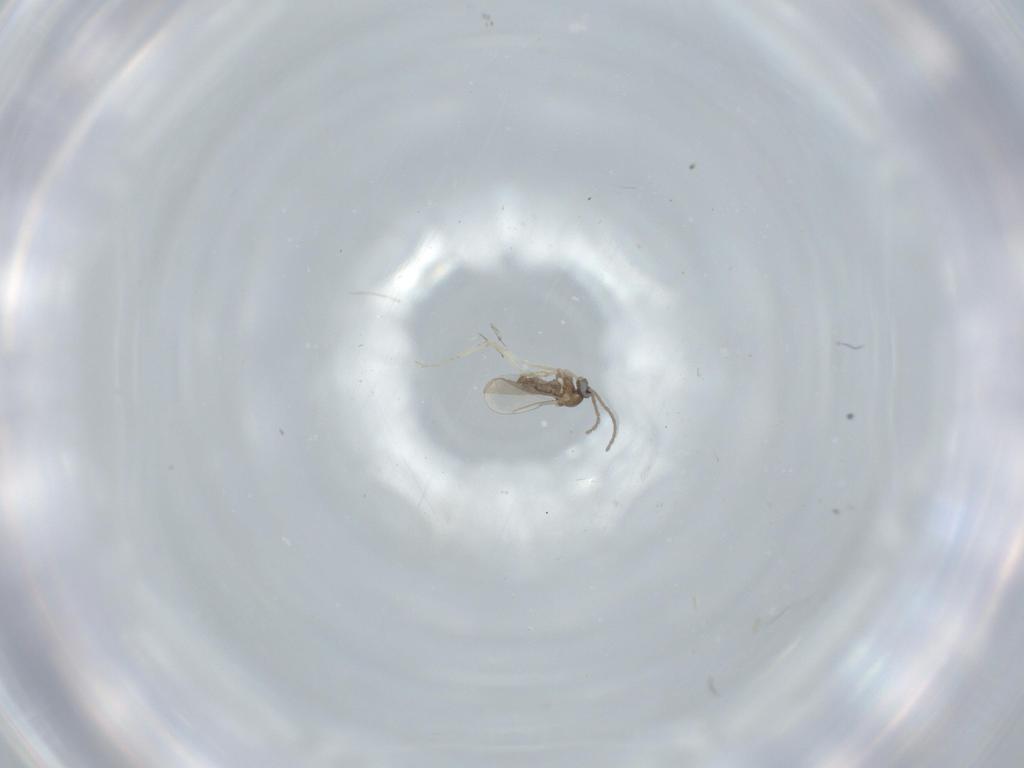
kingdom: Animalia
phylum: Arthropoda
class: Insecta
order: Diptera
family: Cecidomyiidae
